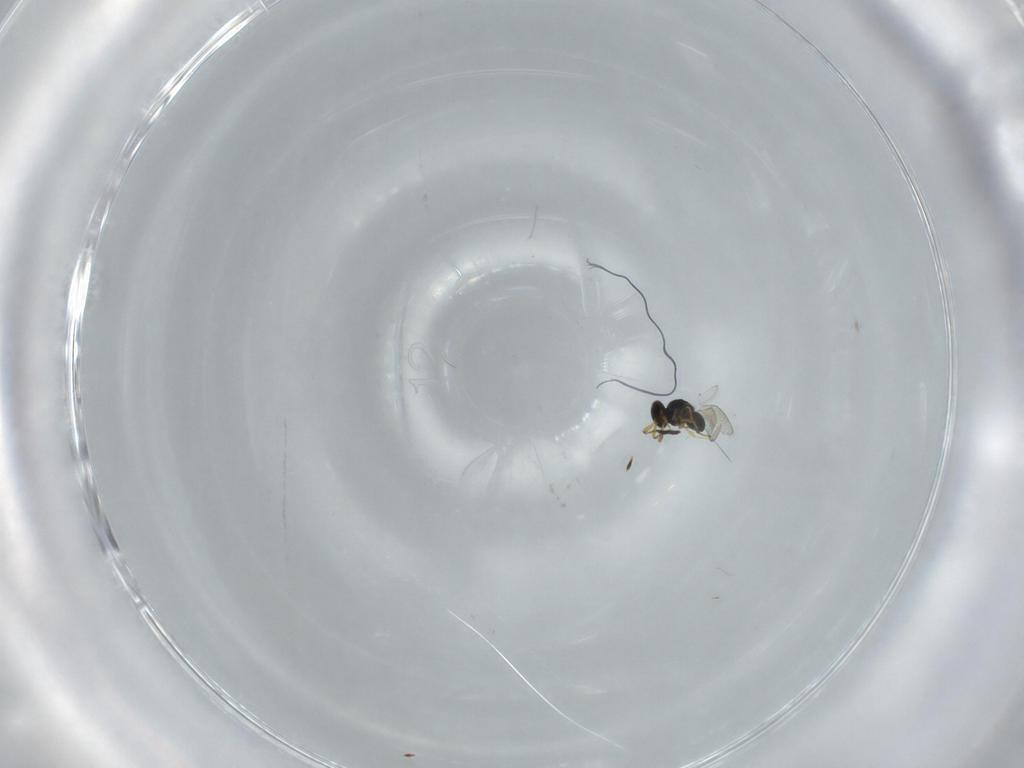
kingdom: Animalia
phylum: Arthropoda
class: Insecta
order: Hymenoptera
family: Platygastridae
